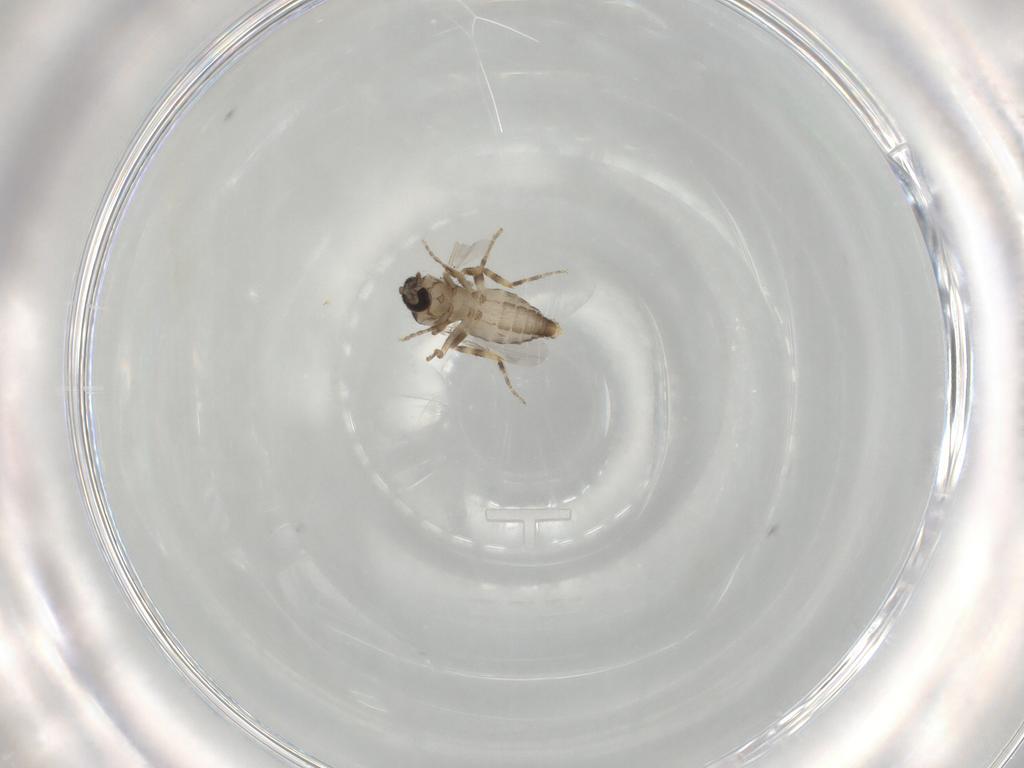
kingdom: Animalia
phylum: Arthropoda
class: Insecta
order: Diptera
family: Ceratopogonidae
